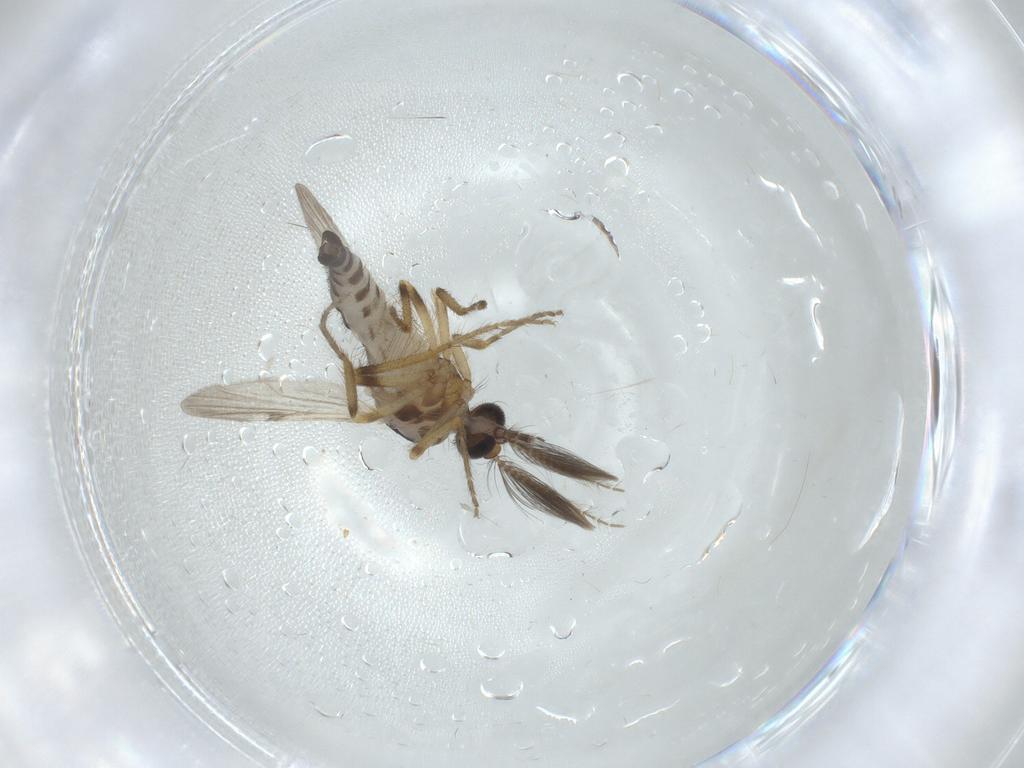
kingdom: Animalia
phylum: Arthropoda
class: Insecta
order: Diptera
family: Ceratopogonidae
